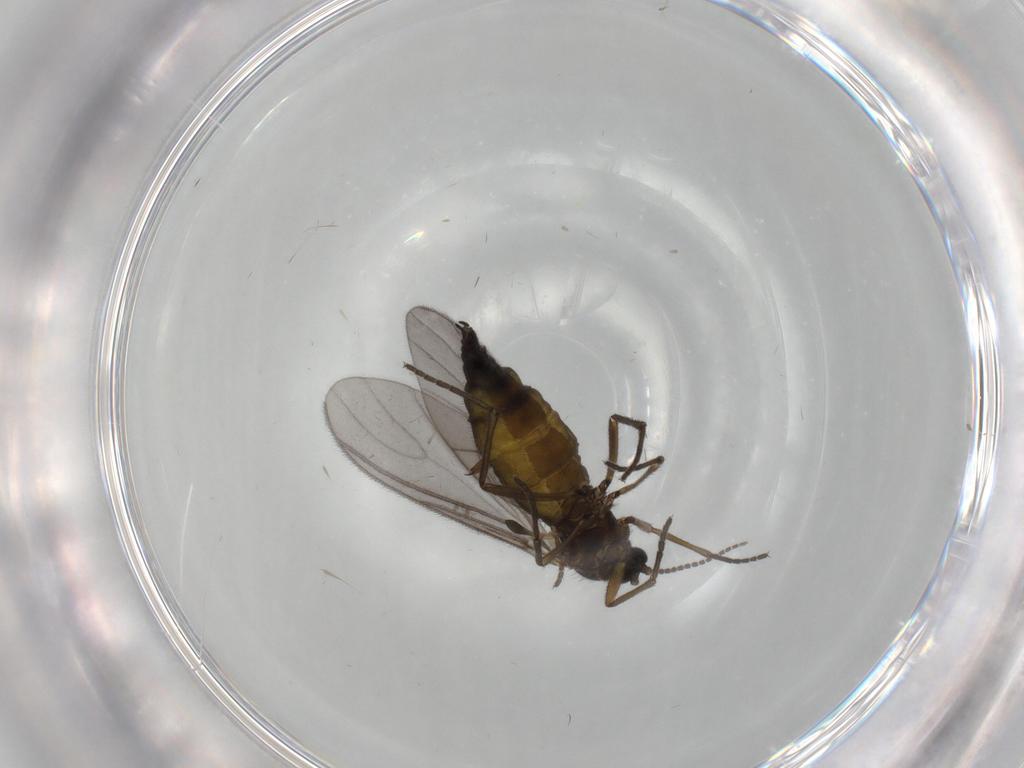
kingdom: Animalia
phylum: Arthropoda
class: Insecta
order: Diptera
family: Sciaridae
